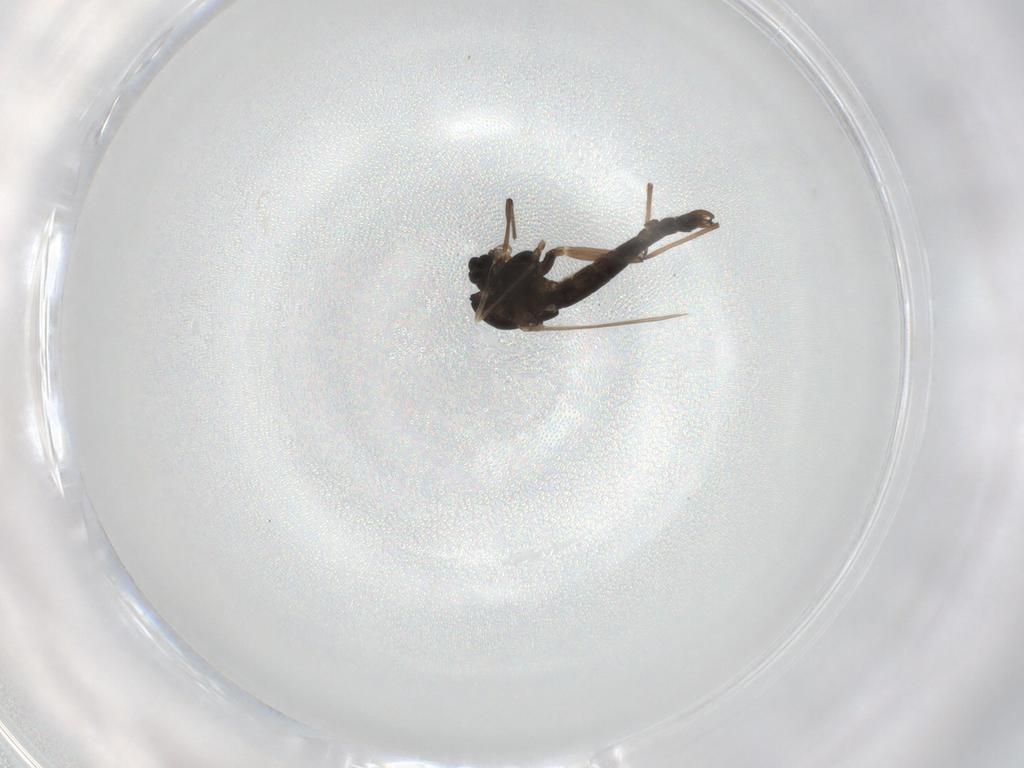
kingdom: Animalia
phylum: Arthropoda
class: Insecta
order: Diptera
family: Chironomidae
